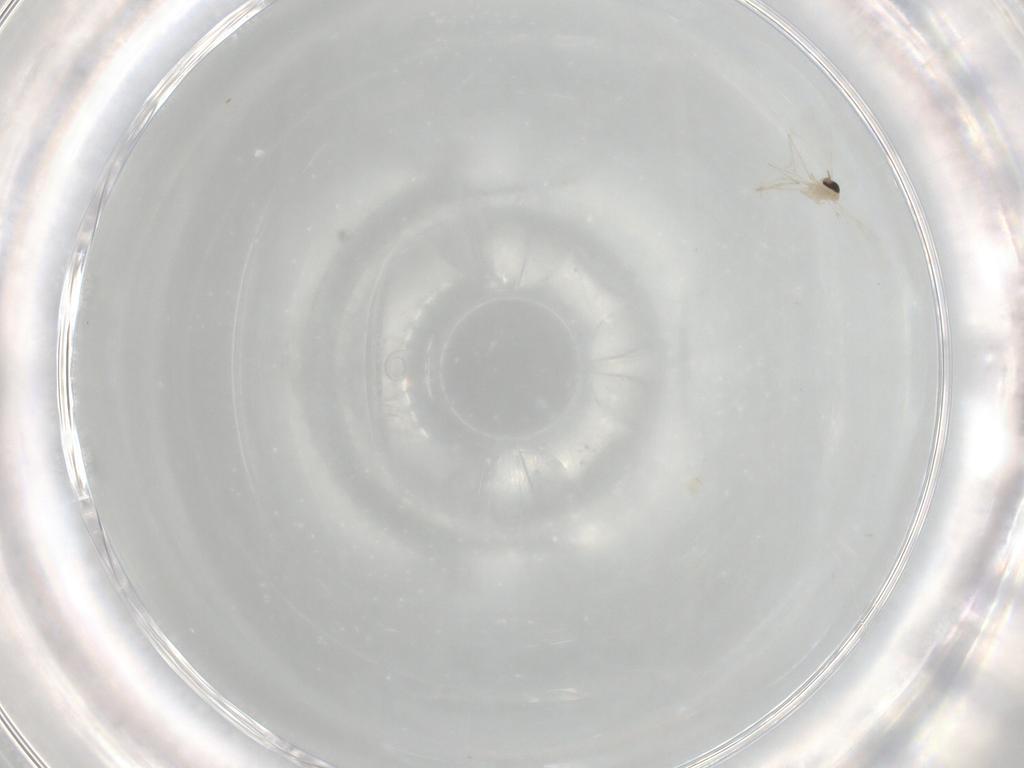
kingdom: Animalia
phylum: Arthropoda
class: Insecta
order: Diptera
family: Cecidomyiidae
